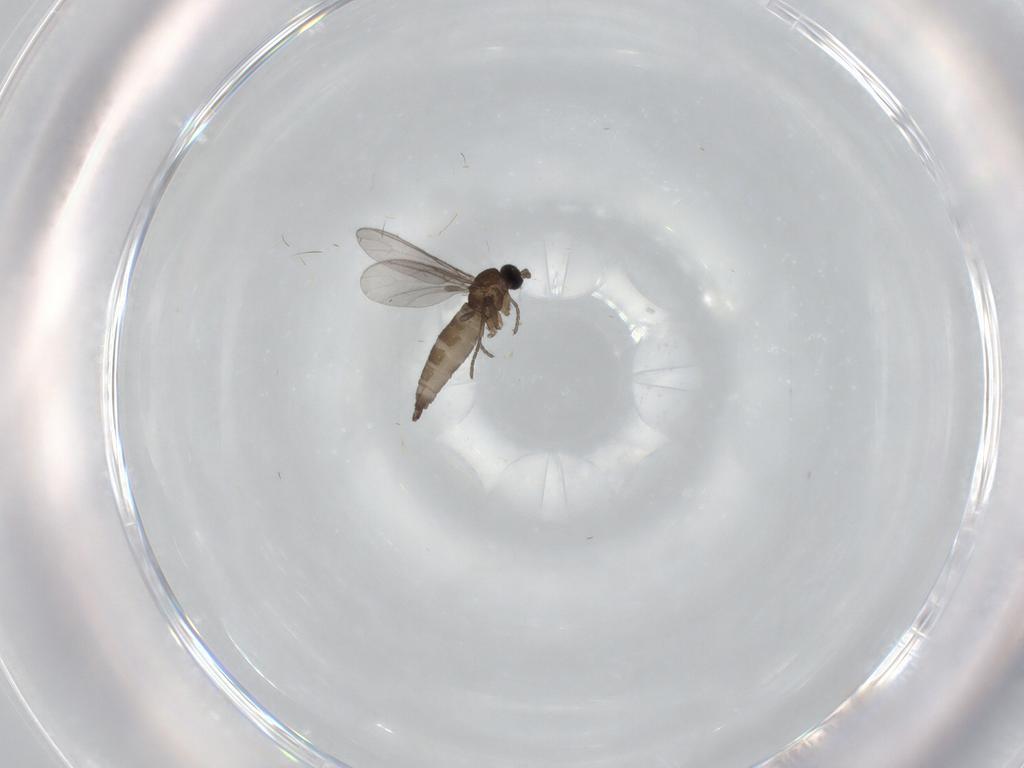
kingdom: Animalia
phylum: Arthropoda
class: Insecta
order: Diptera
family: Sciaridae
